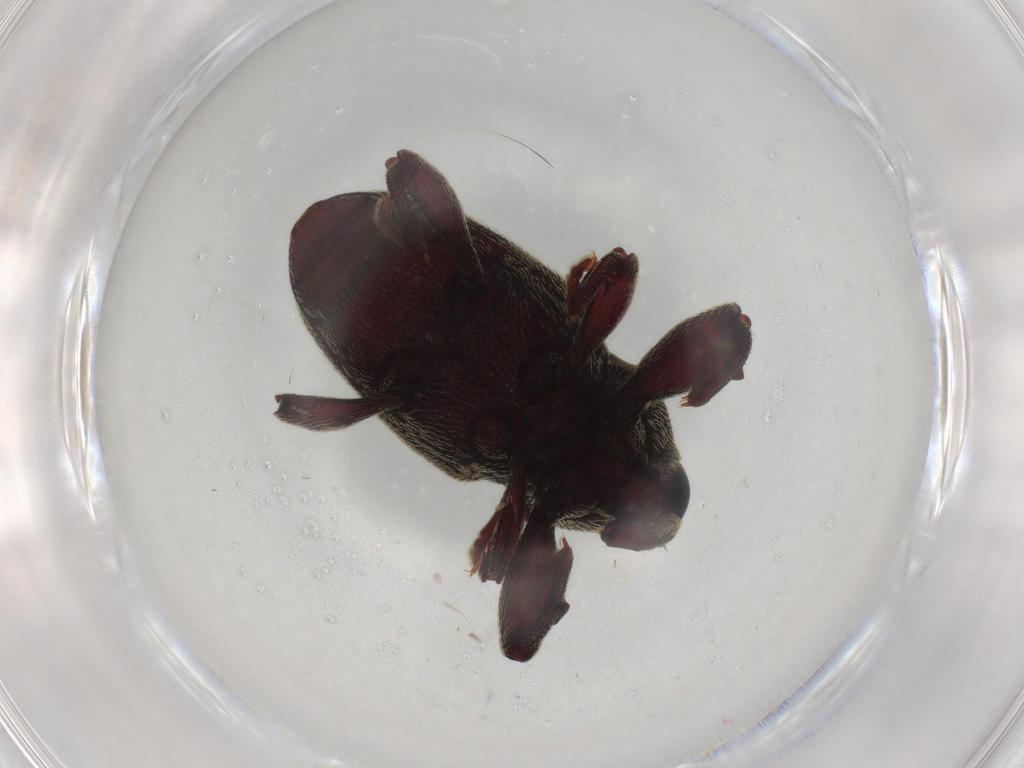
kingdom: Animalia
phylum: Arthropoda
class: Insecta
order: Coleoptera
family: Curculionidae
